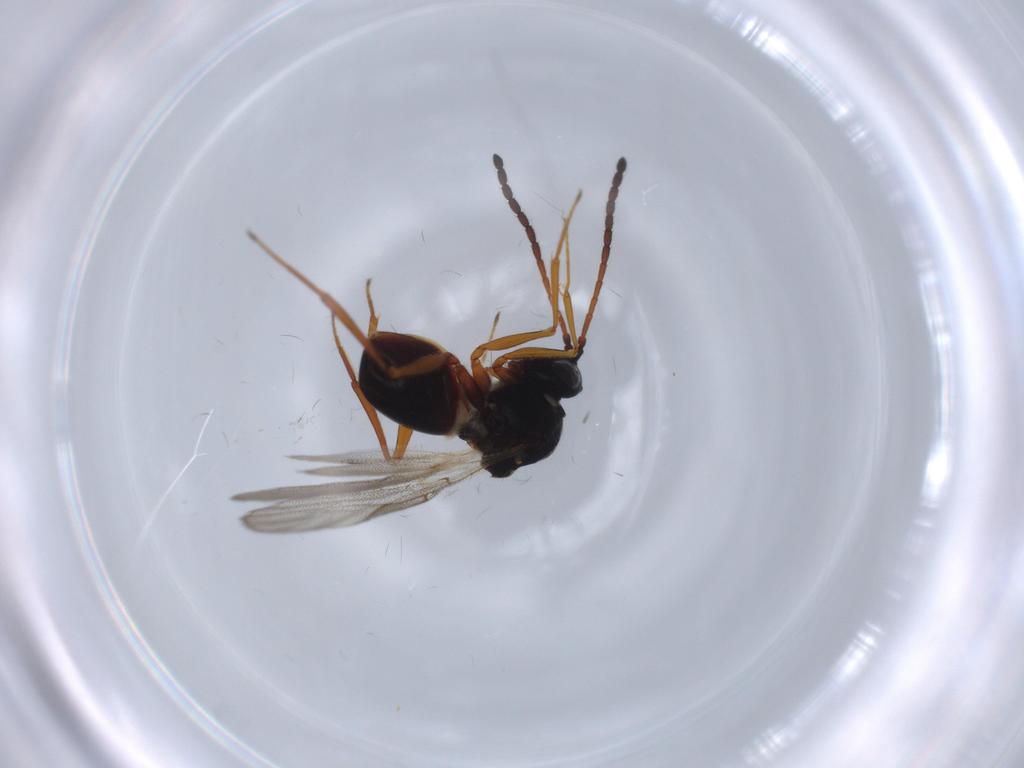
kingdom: Animalia
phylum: Arthropoda
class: Insecta
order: Hymenoptera
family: Figitidae
